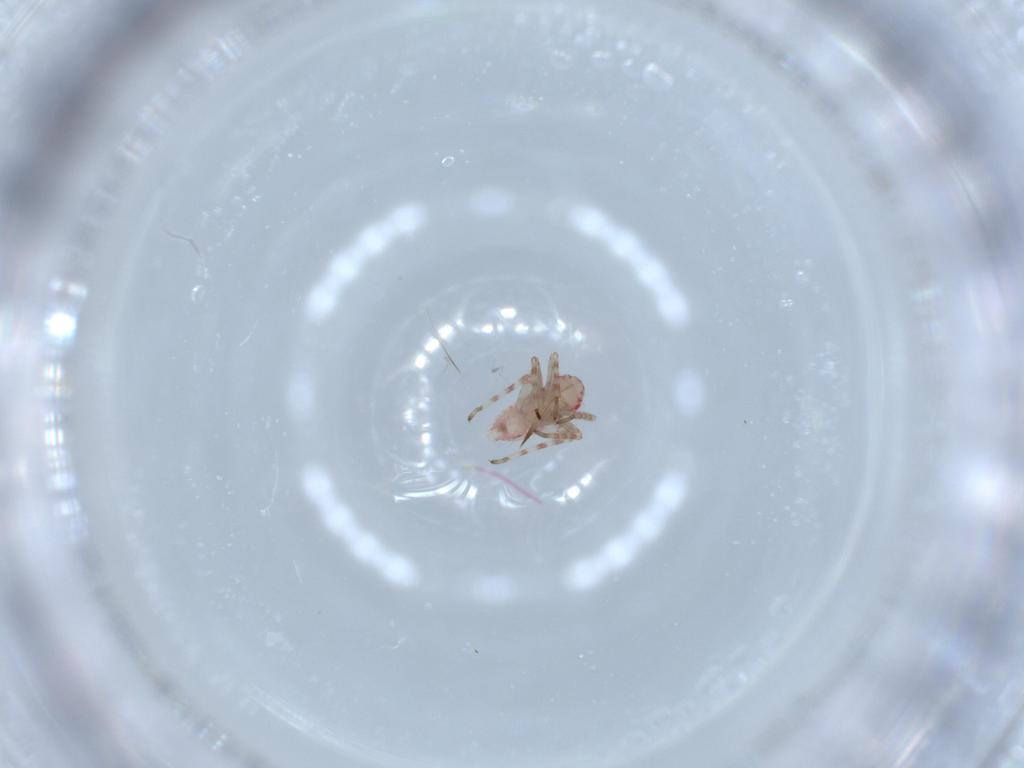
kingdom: Animalia
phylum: Arthropoda
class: Insecta
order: Hemiptera
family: Miridae
